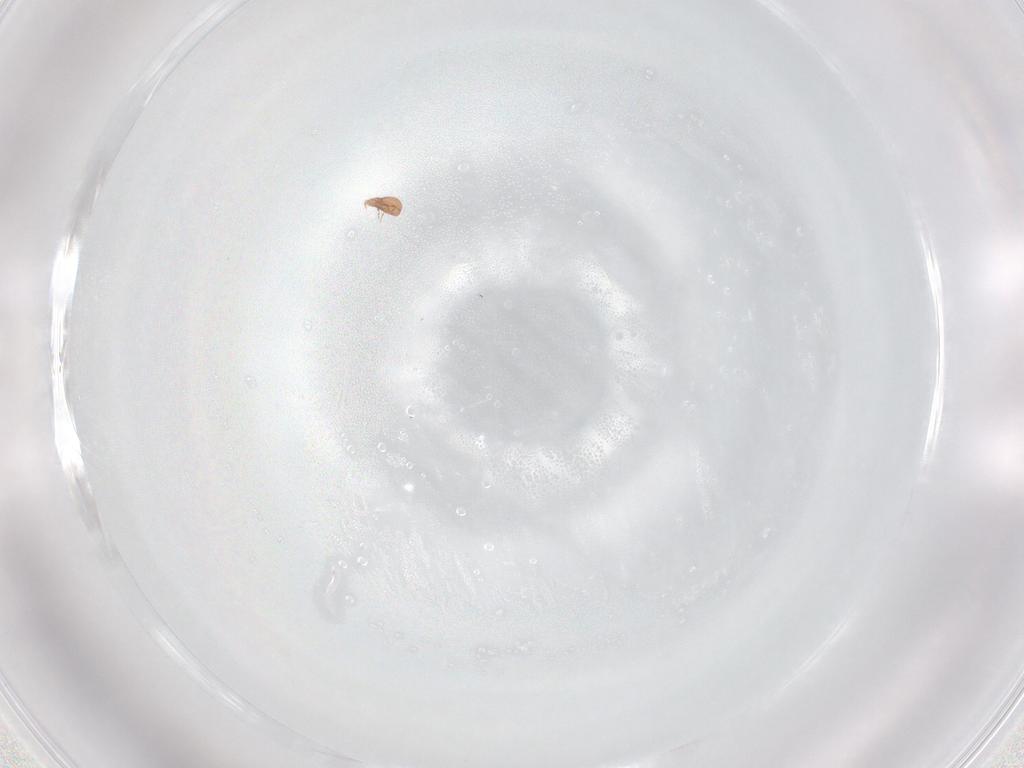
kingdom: Animalia
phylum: Arthropoda
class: Arachnida
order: Sarcoptiformes
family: Oppiidae
